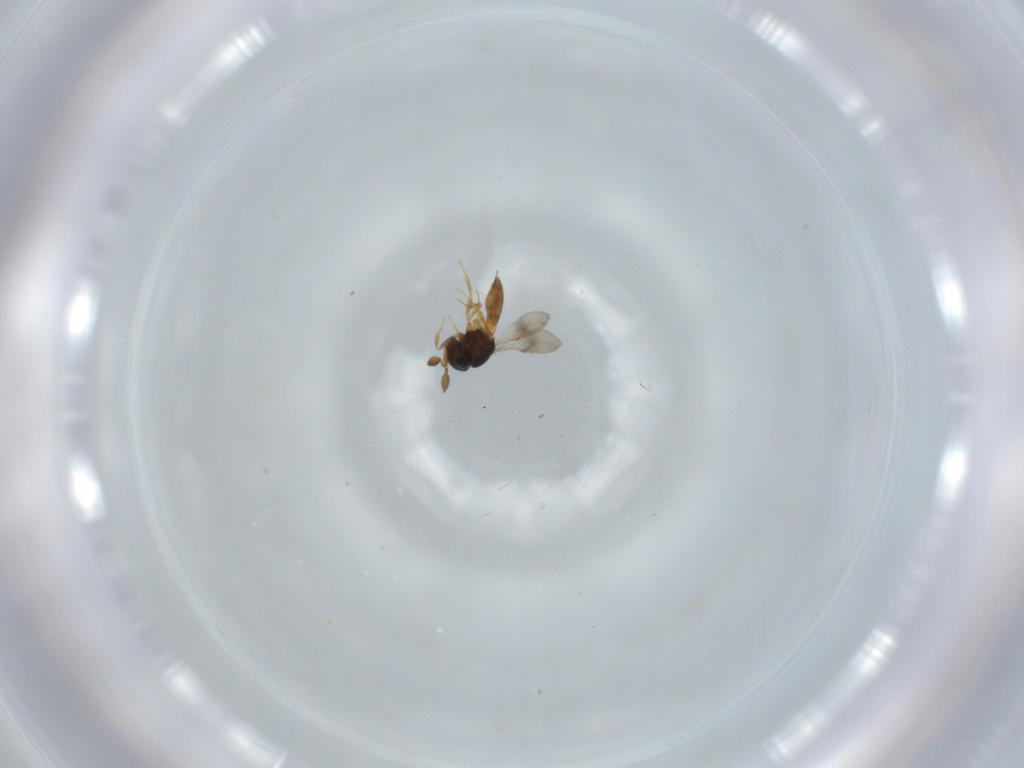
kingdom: Animalia
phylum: Arthropoda
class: Insecta
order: Hymenoptera
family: Scelionidae
